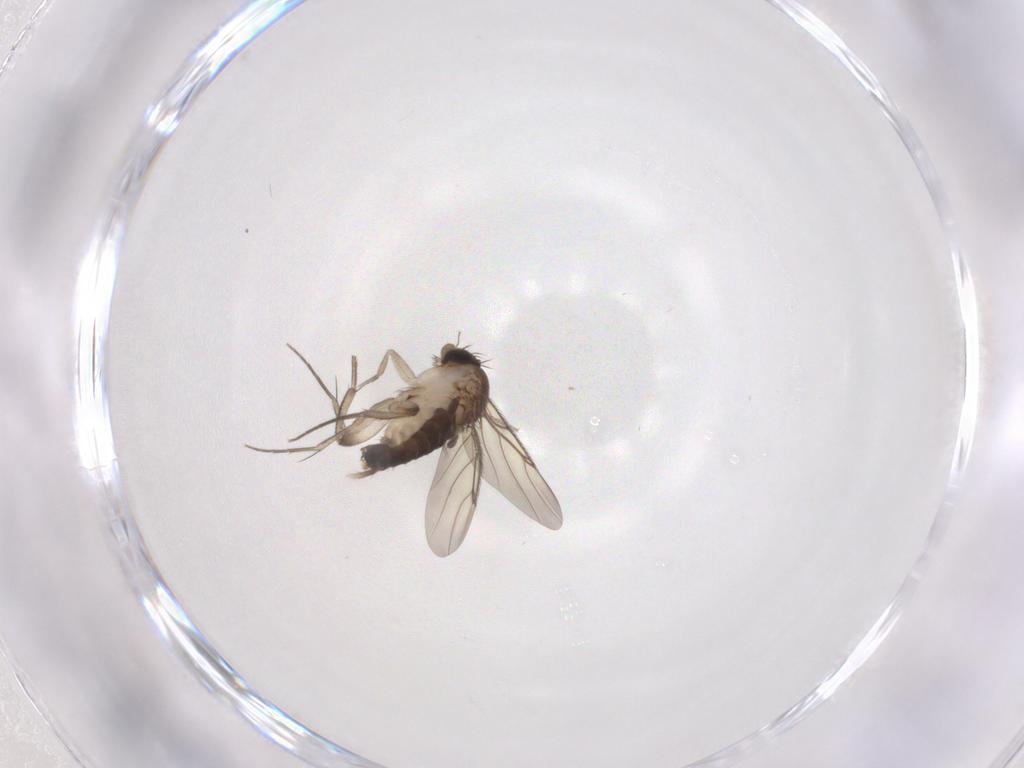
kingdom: Animalia
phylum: Arthropoda
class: Insecta
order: Diptera
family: Phoridae
